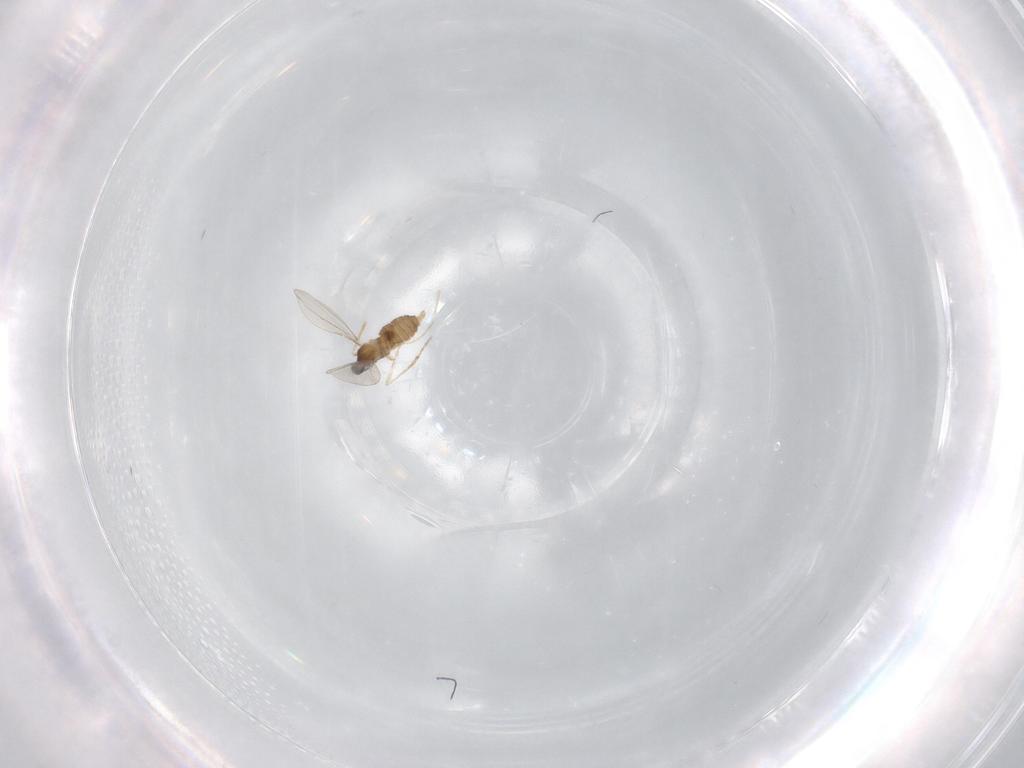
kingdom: Animalia
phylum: Arthropoda
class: Insecta
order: Diptera
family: Cecidomyiidae
